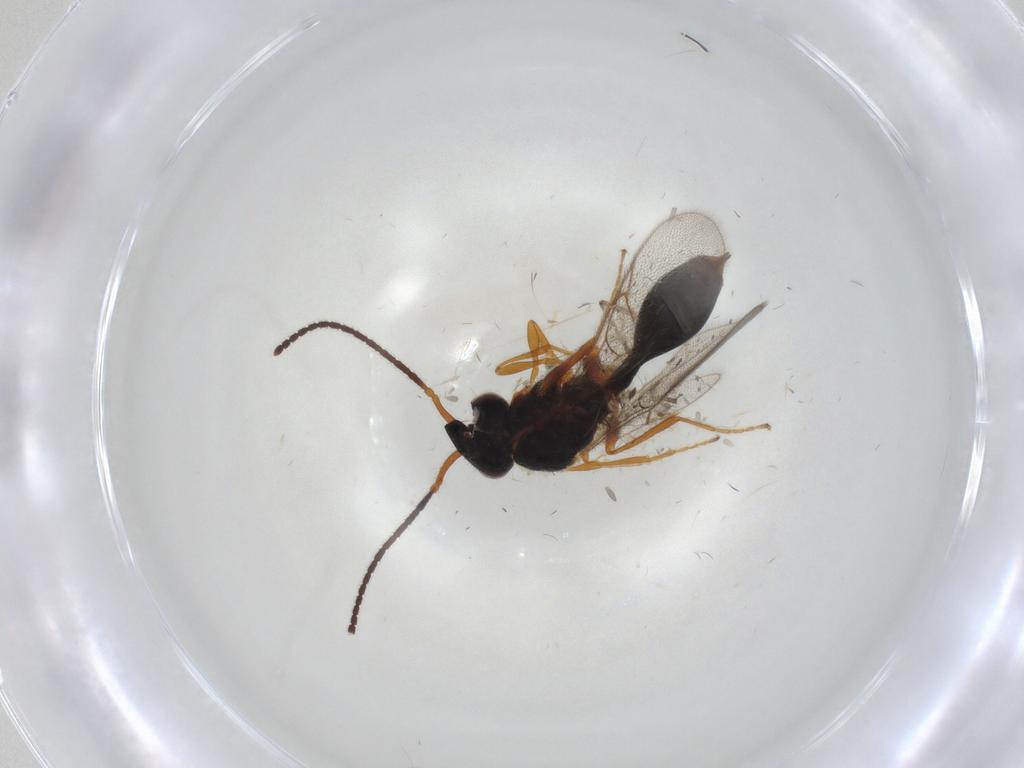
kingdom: Animalia
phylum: Arthropoda
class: Insecta
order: Hymenoptera
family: Diapriidae
